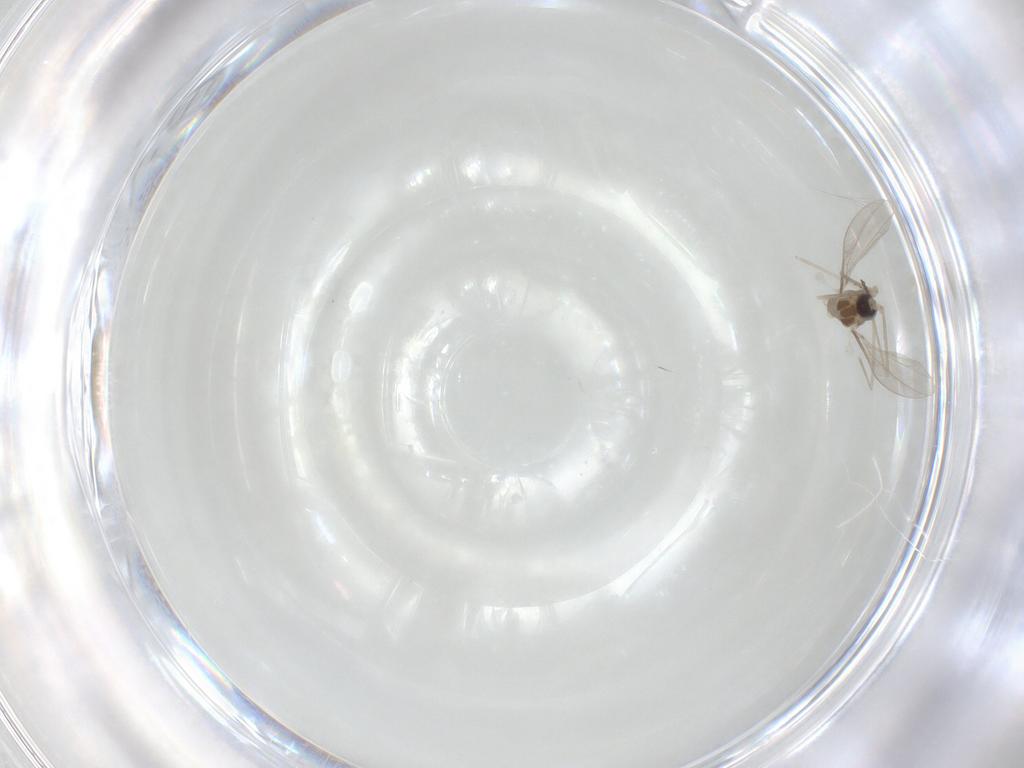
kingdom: Animalia
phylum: Arthropoda
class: Insecta
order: Diptera
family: Cecidomyiidae
